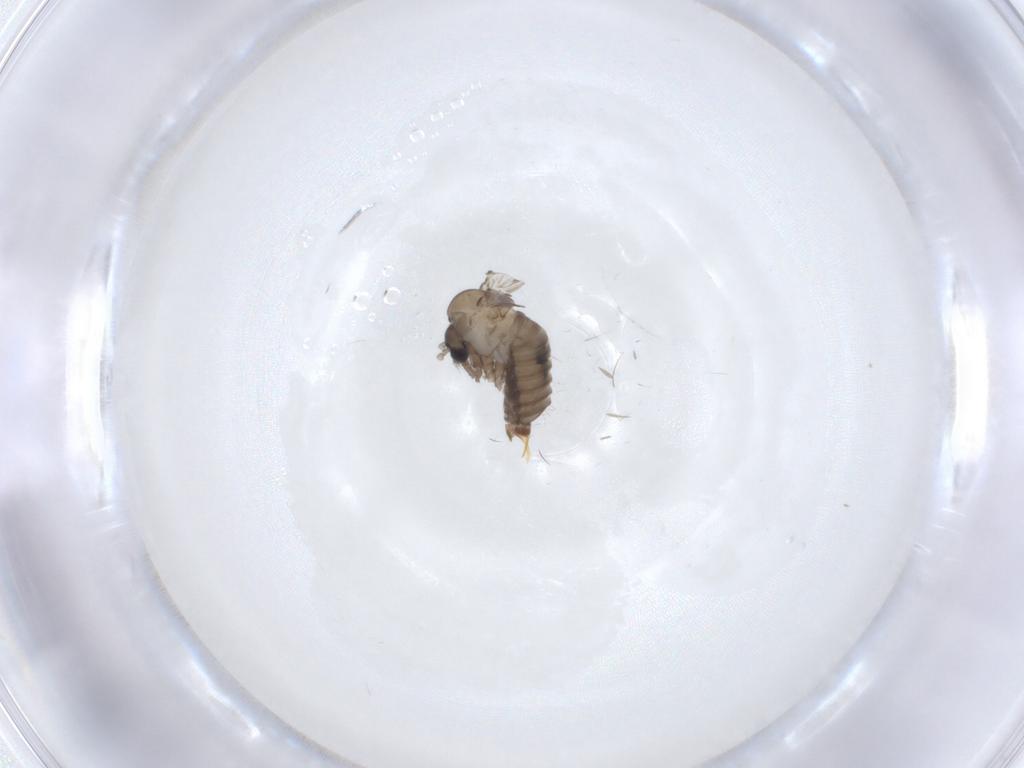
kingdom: Animalia
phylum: Arthropoda
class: Insecta
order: Diptera
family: Psychodidae
